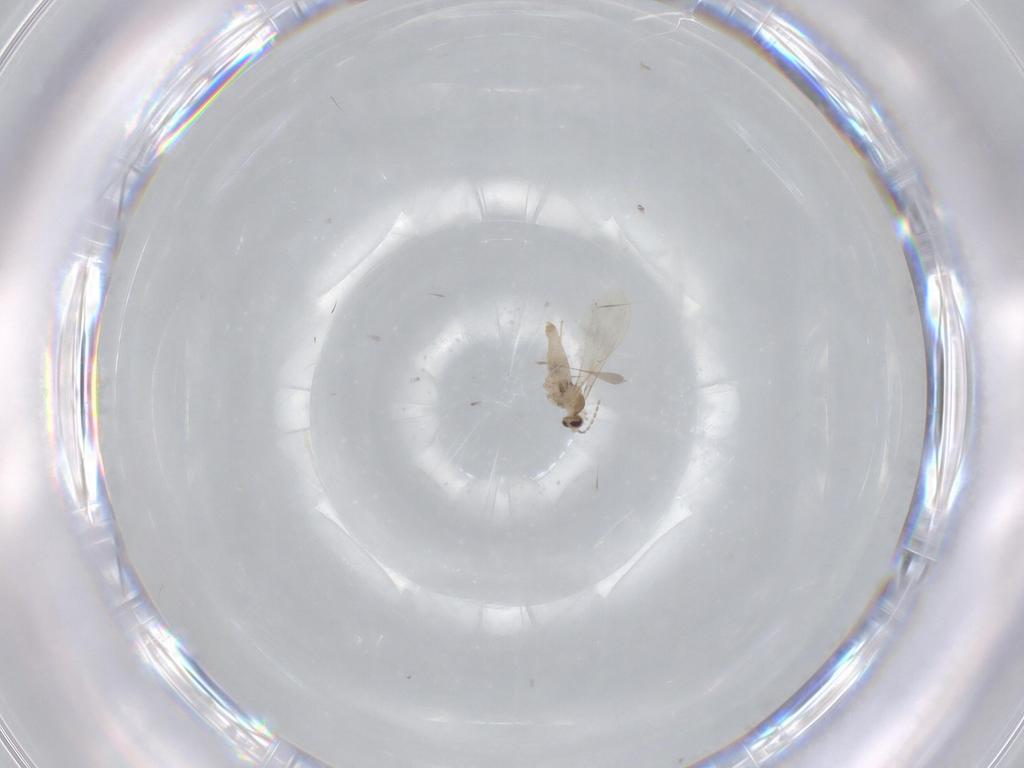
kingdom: Animalia
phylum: Arthropoda
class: Insecta
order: Diptera
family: Cecidomyiidae
